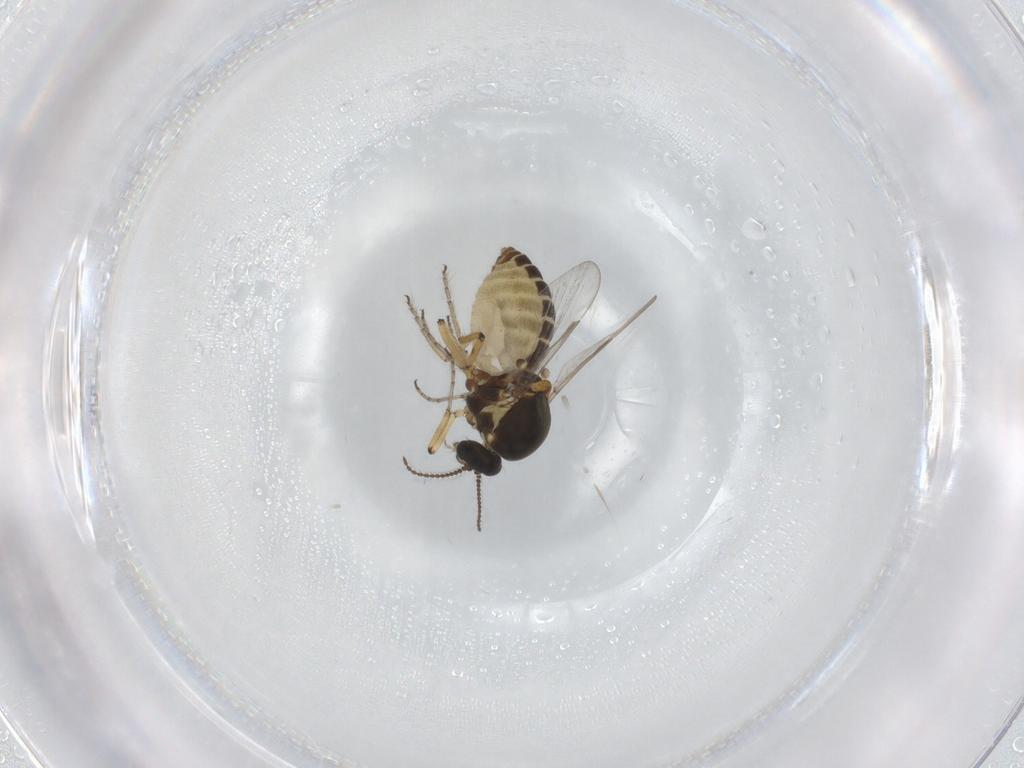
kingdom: Animalia
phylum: Arthropoda
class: Insecta
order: Diptera
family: Ceratopogonidae
